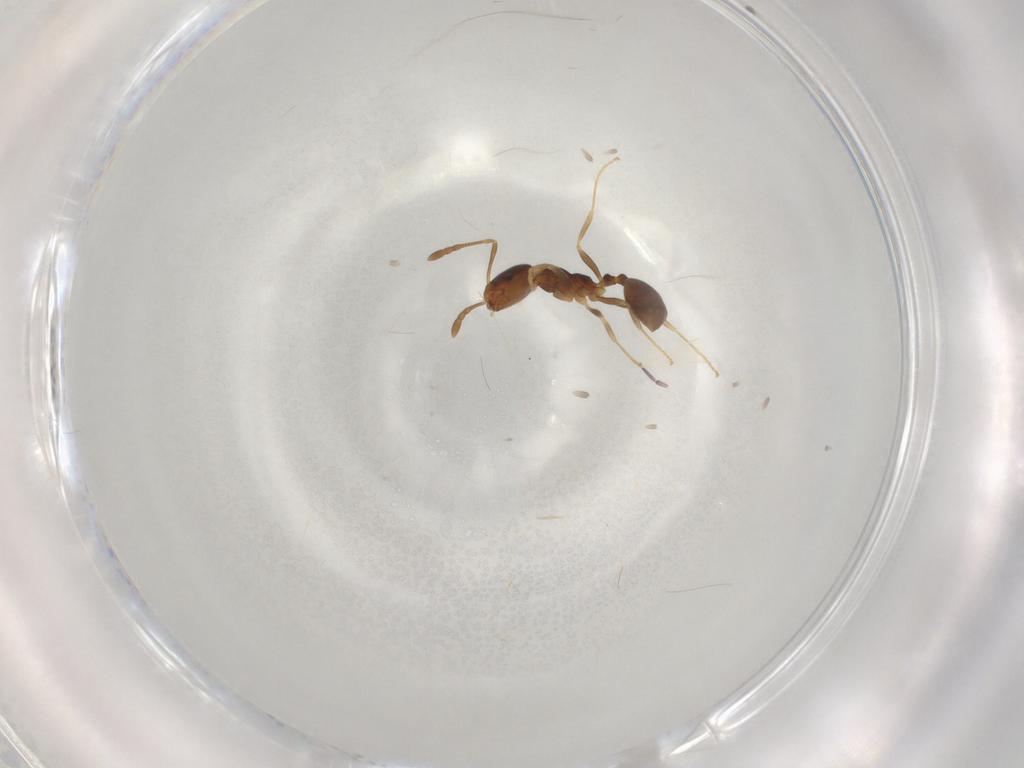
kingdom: Animalia
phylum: Arthropoda
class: Insecta
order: Hymenoptera
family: Formicidae
